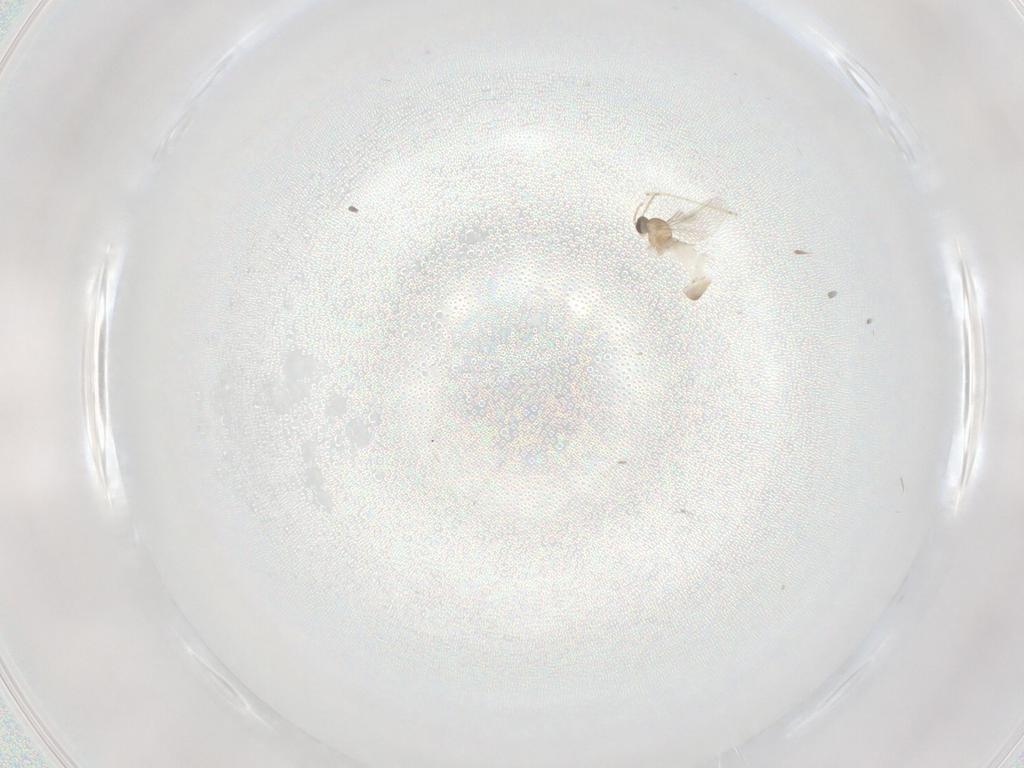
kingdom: Animalia
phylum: Arthropoda
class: Insecta
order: Diptera
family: Cecidomyiidae
